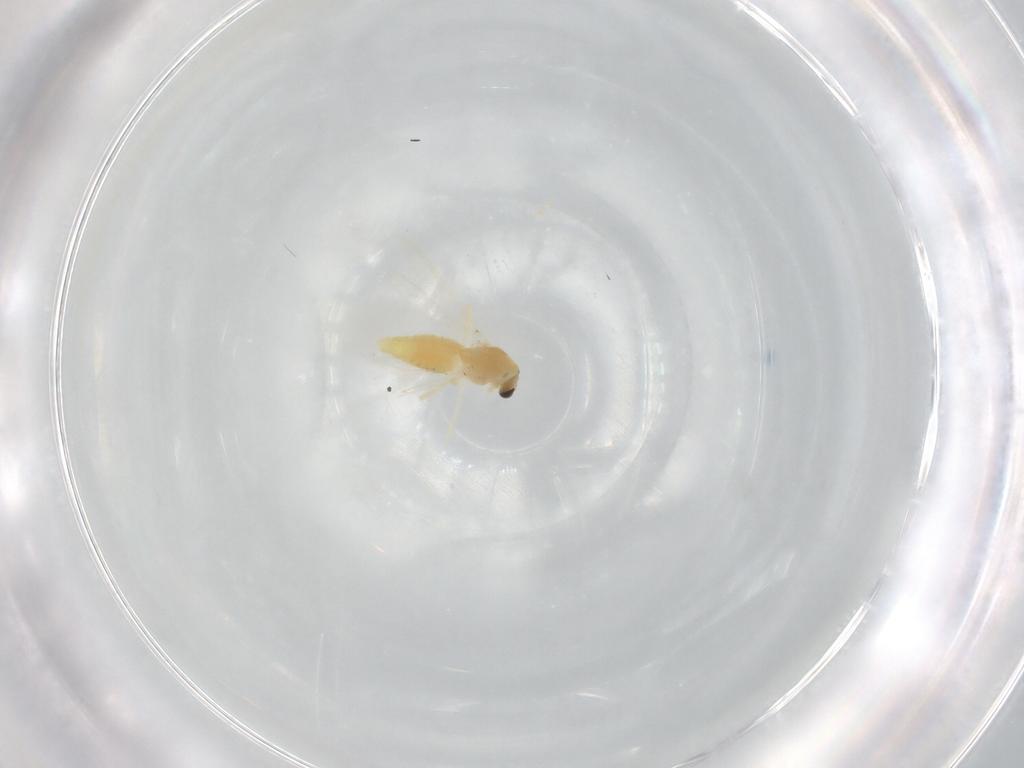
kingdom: Animalia
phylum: Arthropoda
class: Insecta
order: Diptera
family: Chironomidae
